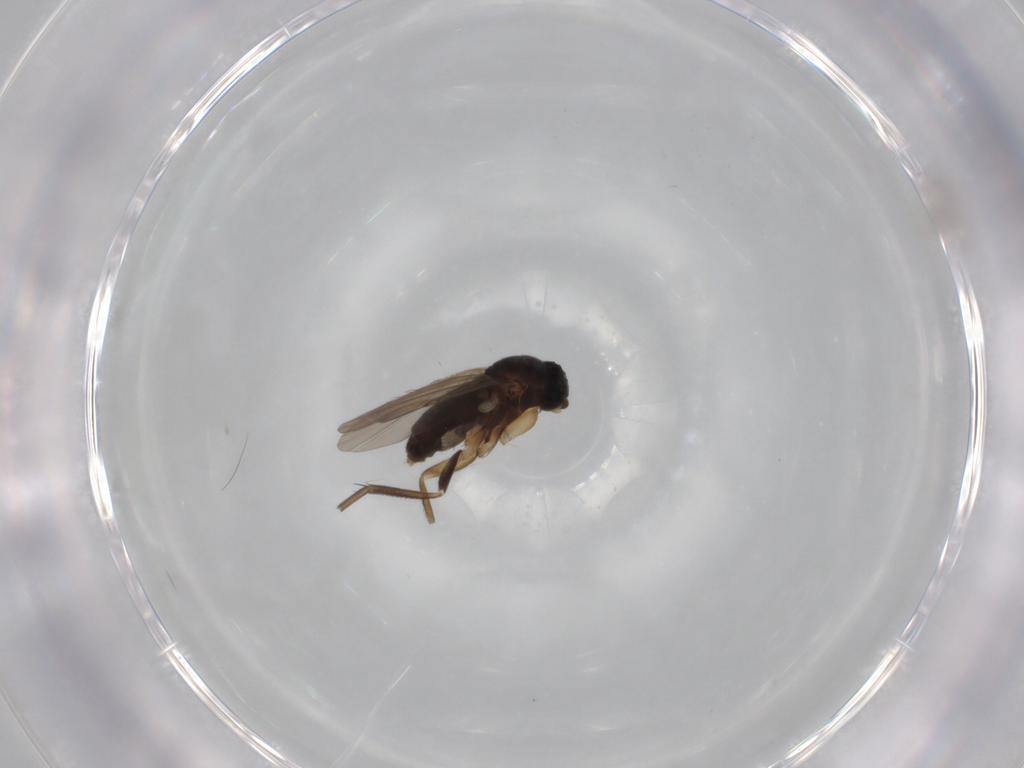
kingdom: Animalia
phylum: Arthropoda
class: Insecta
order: Diptera
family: Phoridae
